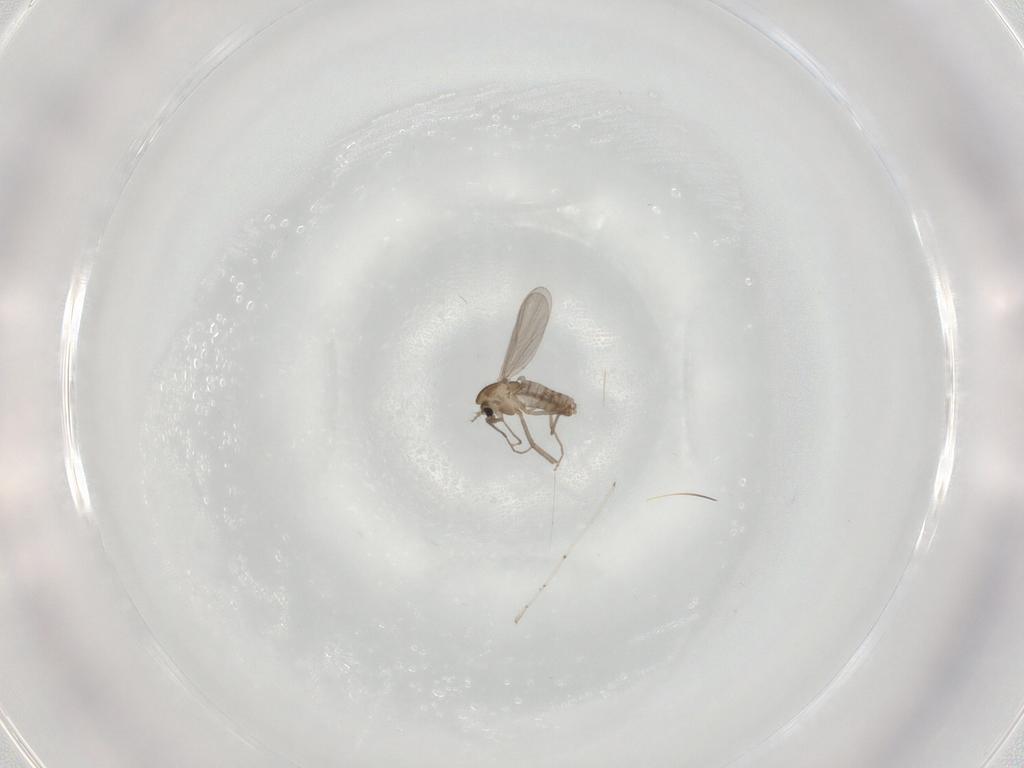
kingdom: Animalia
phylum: Arthropoda
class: Insecta
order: Diptera
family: Chironomidae
